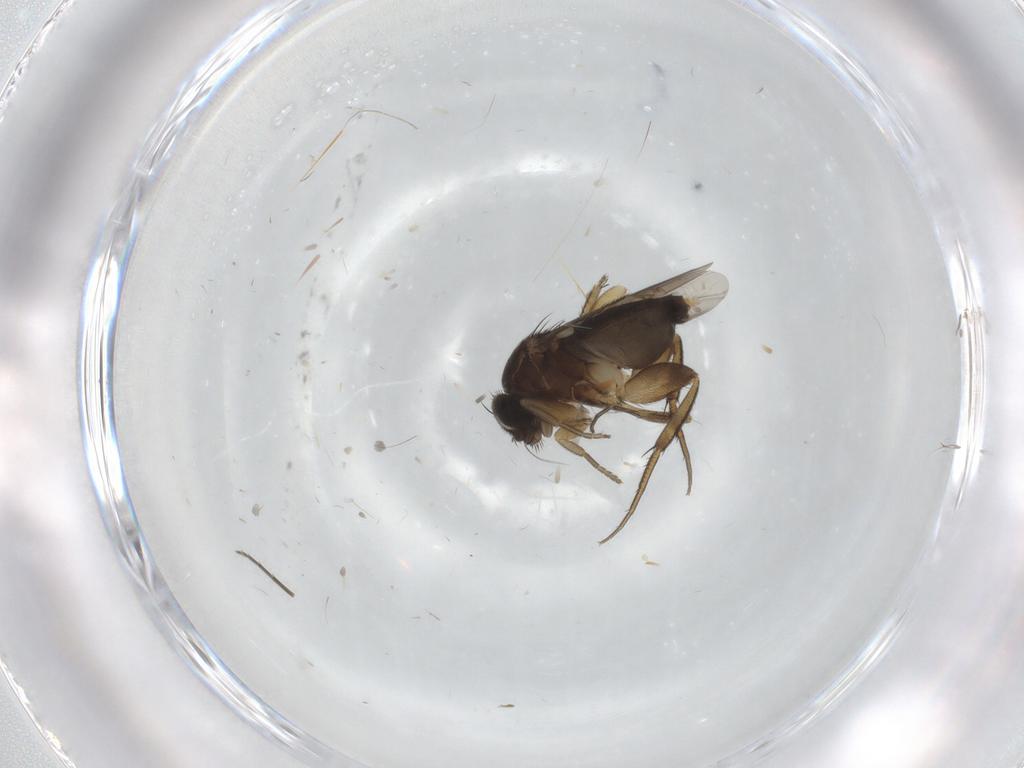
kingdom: Animalia
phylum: Arthropoda
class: Insecta
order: Diptera
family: Phoridae
